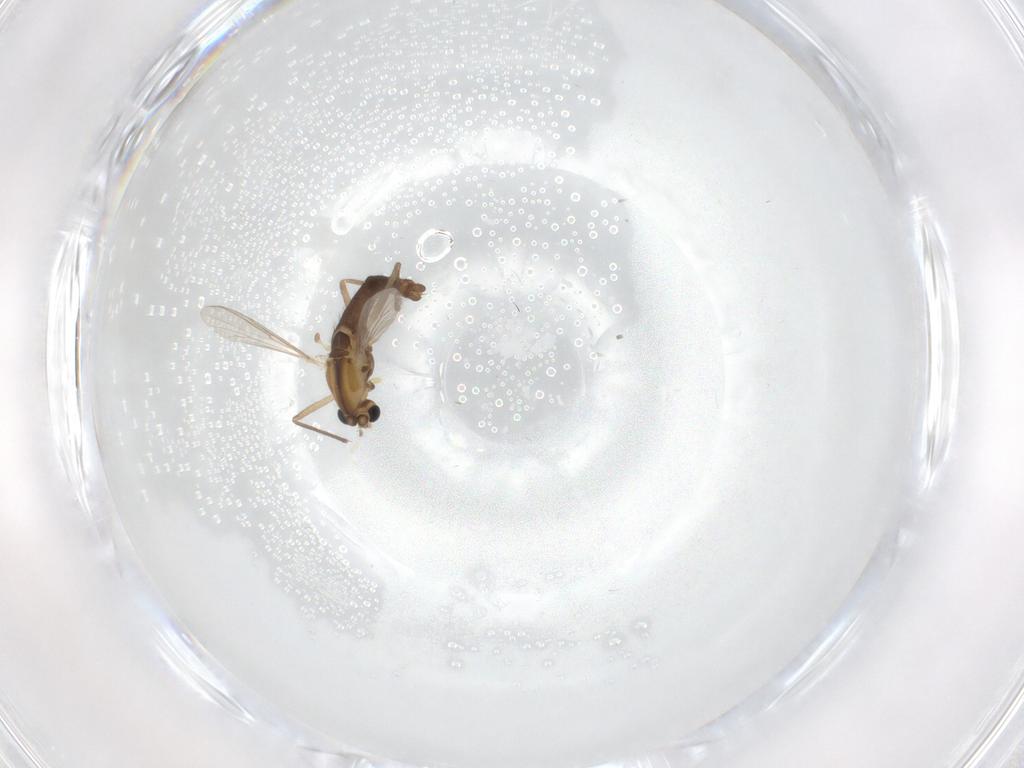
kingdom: Animalia
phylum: Arthropoda
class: Insecta
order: Diptera
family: Chironomidae
